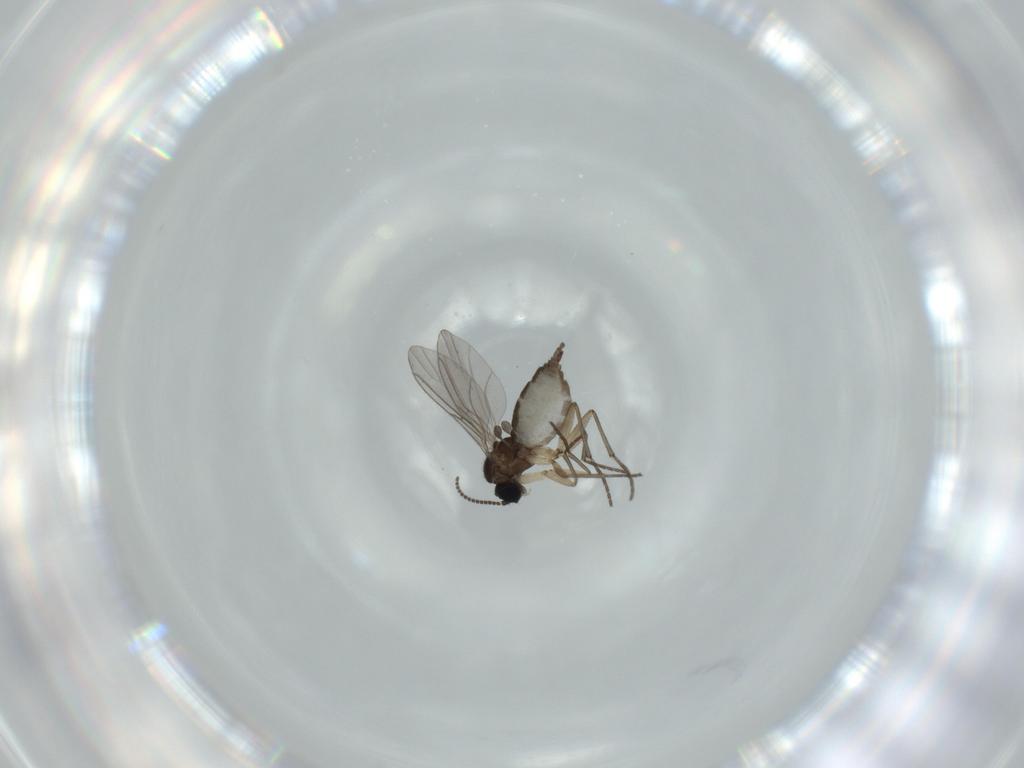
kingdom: Animalia
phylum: Arthropoda
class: Insecta
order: Diptera
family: Sciaridae
